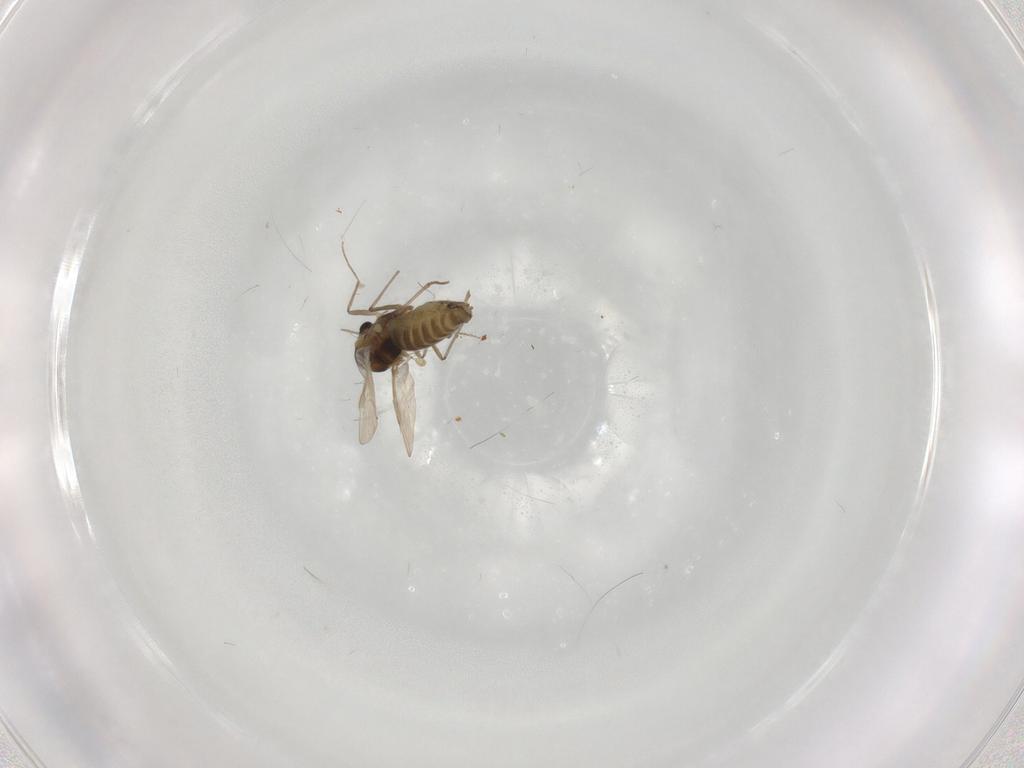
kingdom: Animalia
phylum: Arthropoda
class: Insecta
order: Diptera
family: Chironomidae
